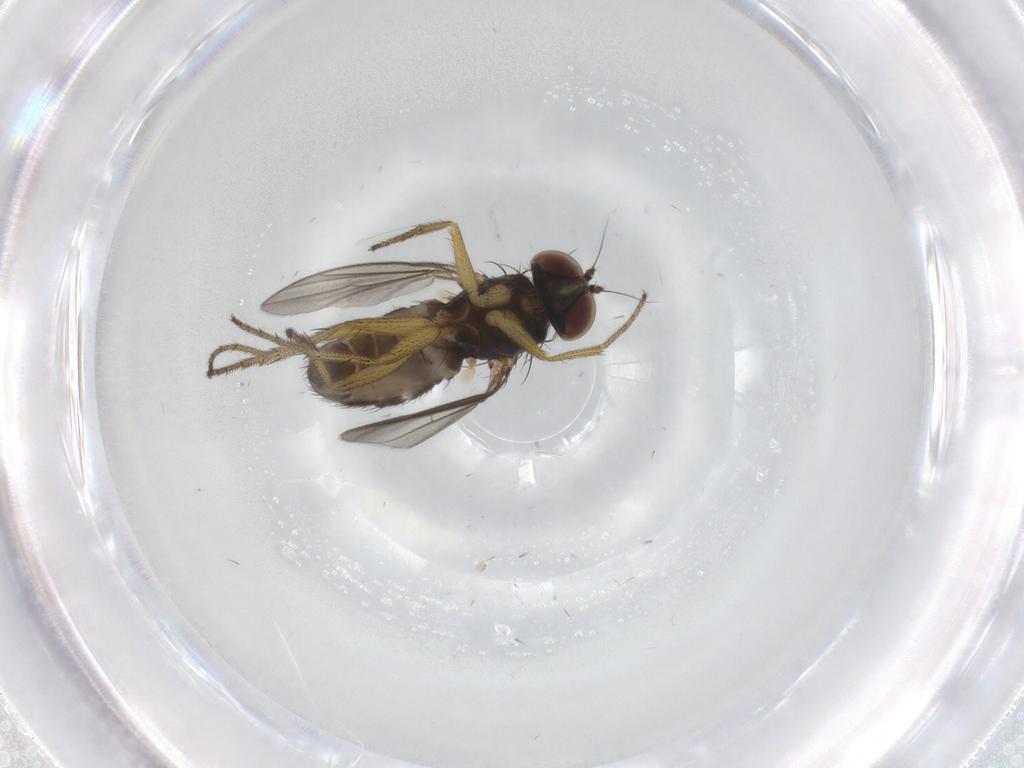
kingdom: Animalia
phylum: Arthropoda
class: Insecta
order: Diptera
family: Dolichopodidae
